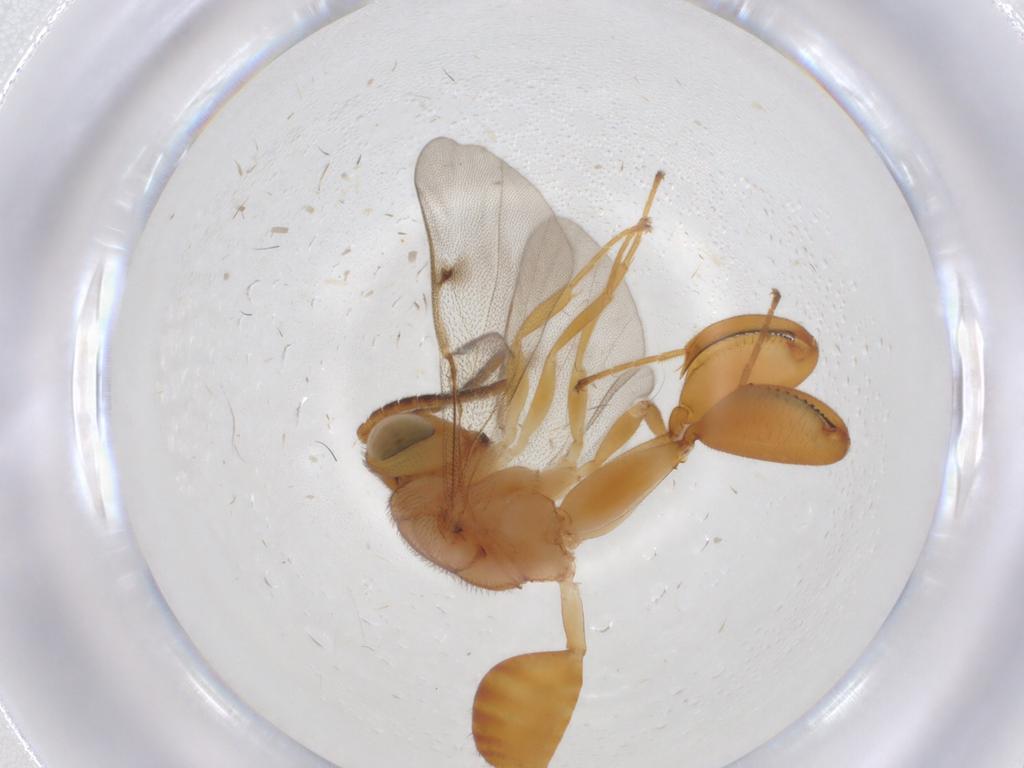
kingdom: Animalia
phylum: Arthropoda
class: Insecta
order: Hymenoptera
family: Chalcididae
